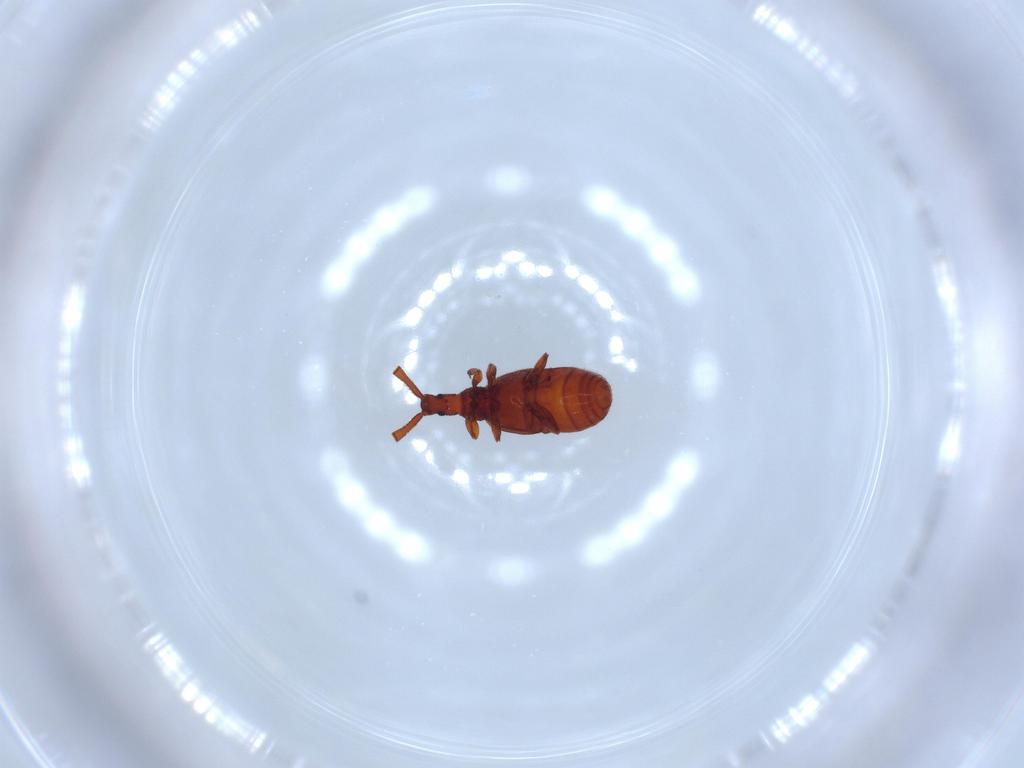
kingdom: Animalia
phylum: Arthropoda
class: Insecta
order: Coleoptera
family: Staphylinidae
